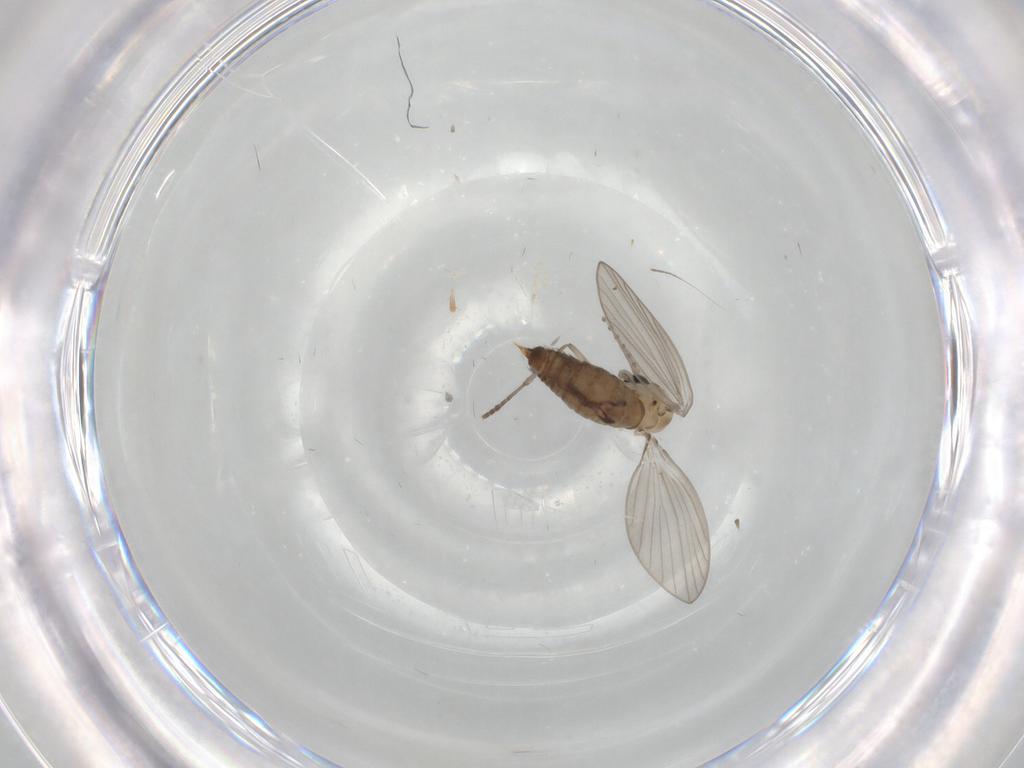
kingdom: Animalia
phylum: Arthropoda
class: Insecta
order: Diptera
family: Psychodidae
